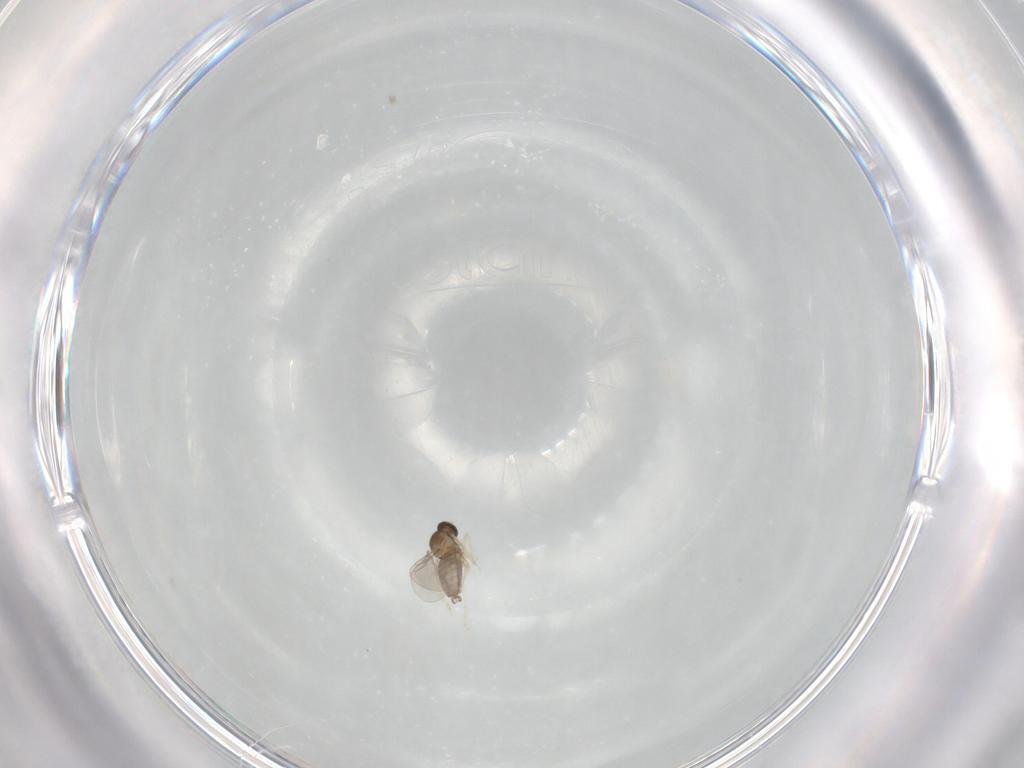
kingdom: Animalia
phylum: Arthropoda
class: Insecta
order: Diptera
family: Cecidomyiidae
